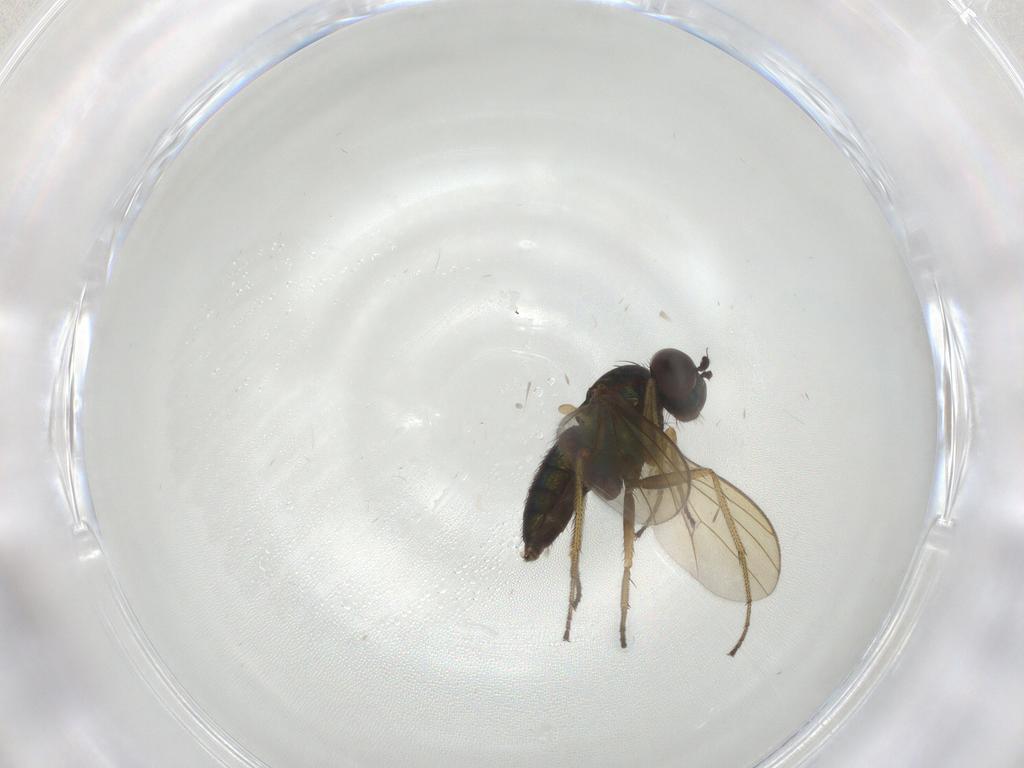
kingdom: Animalia
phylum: Arthropoda
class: Insecta
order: Diptera
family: Dolichopodidae
